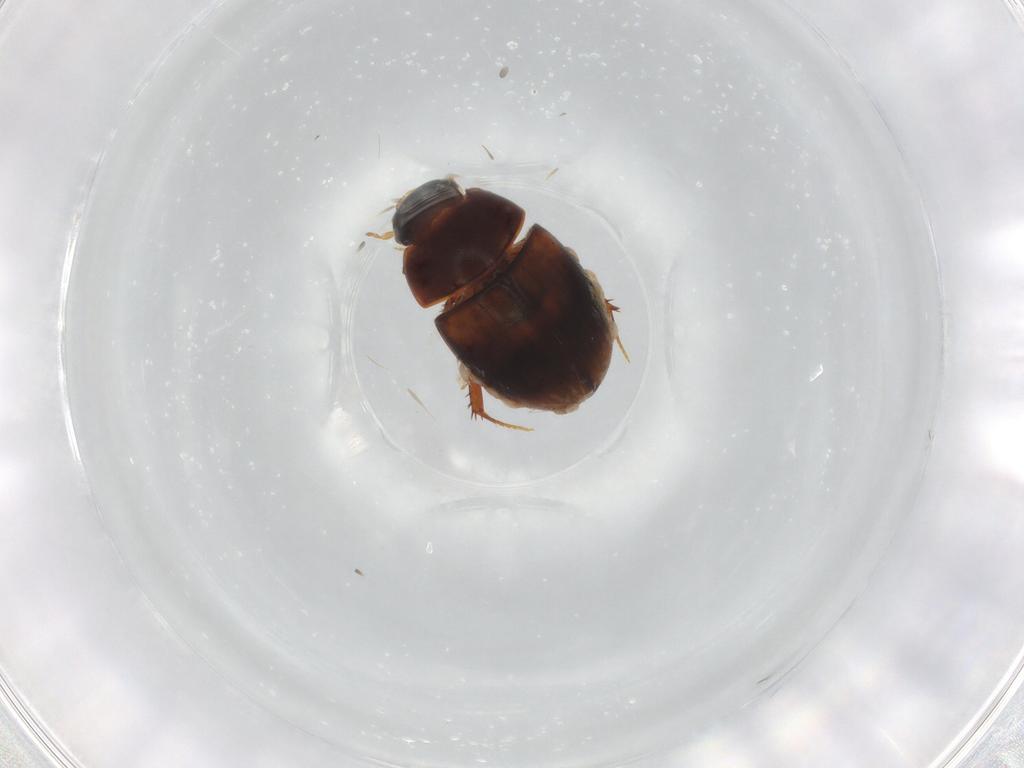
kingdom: Animalia
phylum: Arthropoda
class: Insecta
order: Coleoptera
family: Hydrophilidae
